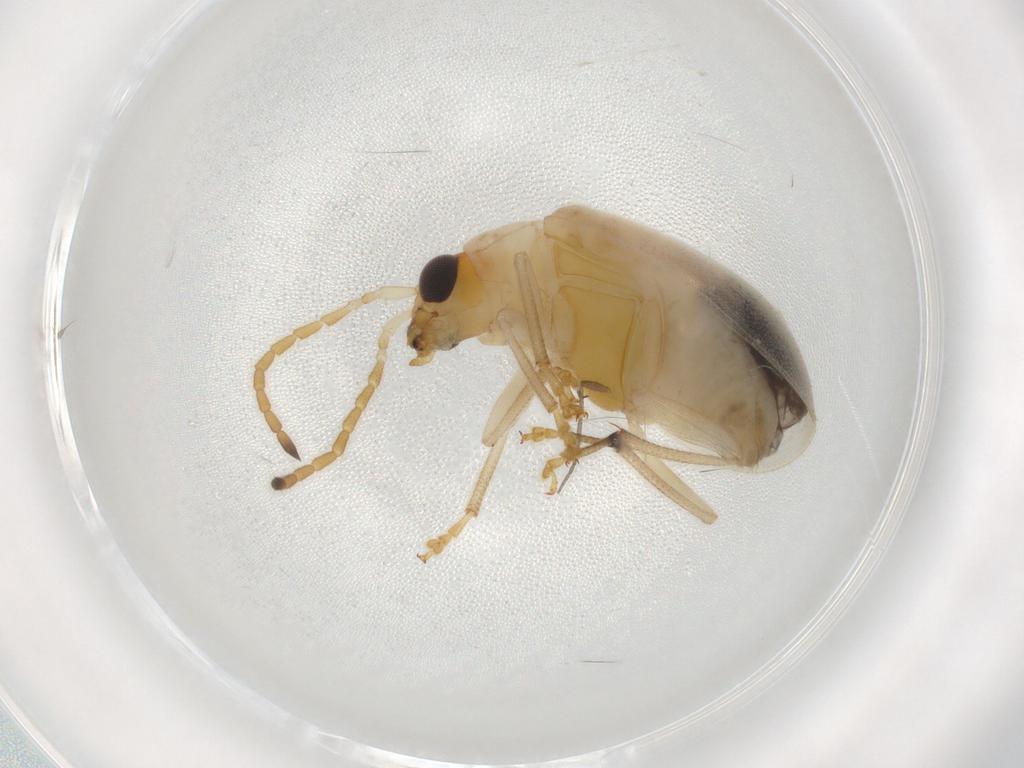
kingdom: Animalia
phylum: Arthropoda
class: Insecta
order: Coleoptera
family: Chrysomelidae
